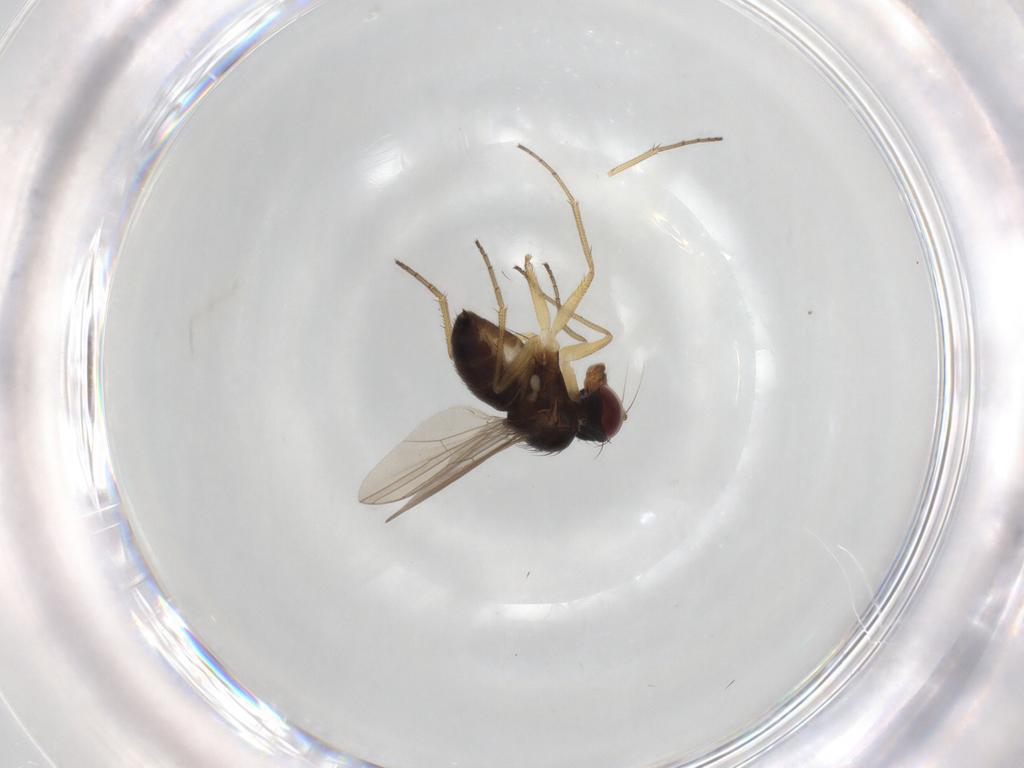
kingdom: Animalia
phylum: Arthropoda
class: Insecta
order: Diptera
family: Dolichopodidae
